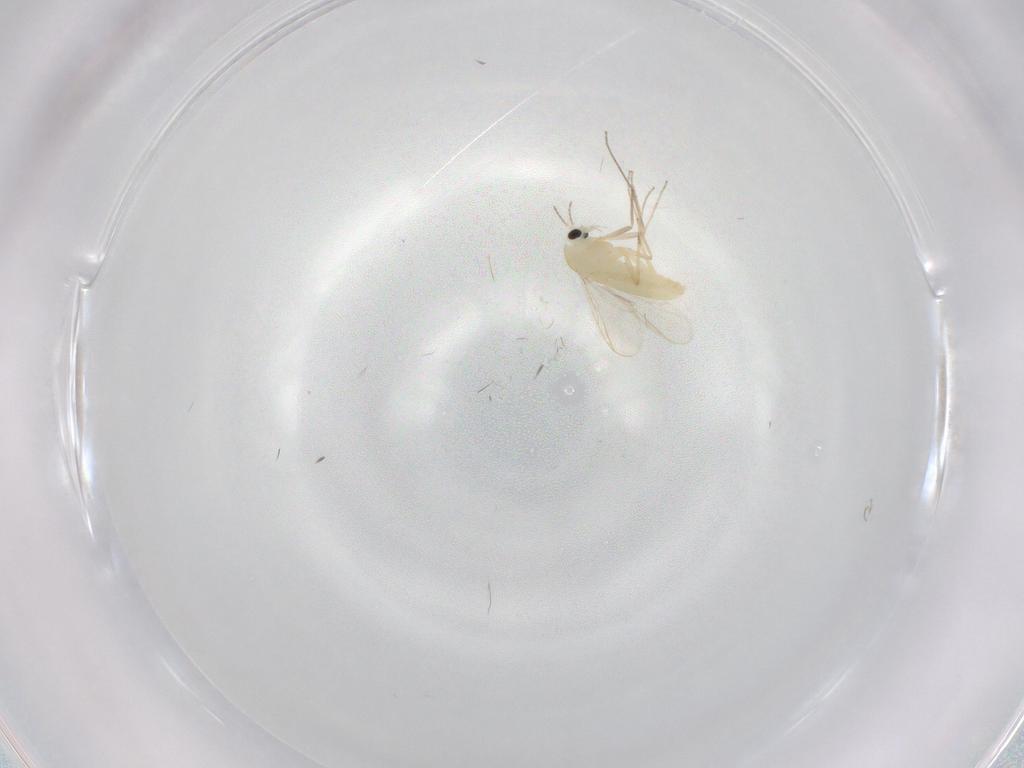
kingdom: Animalia
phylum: Arthropoda
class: Insecta
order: Diptera
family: Chironomidae
